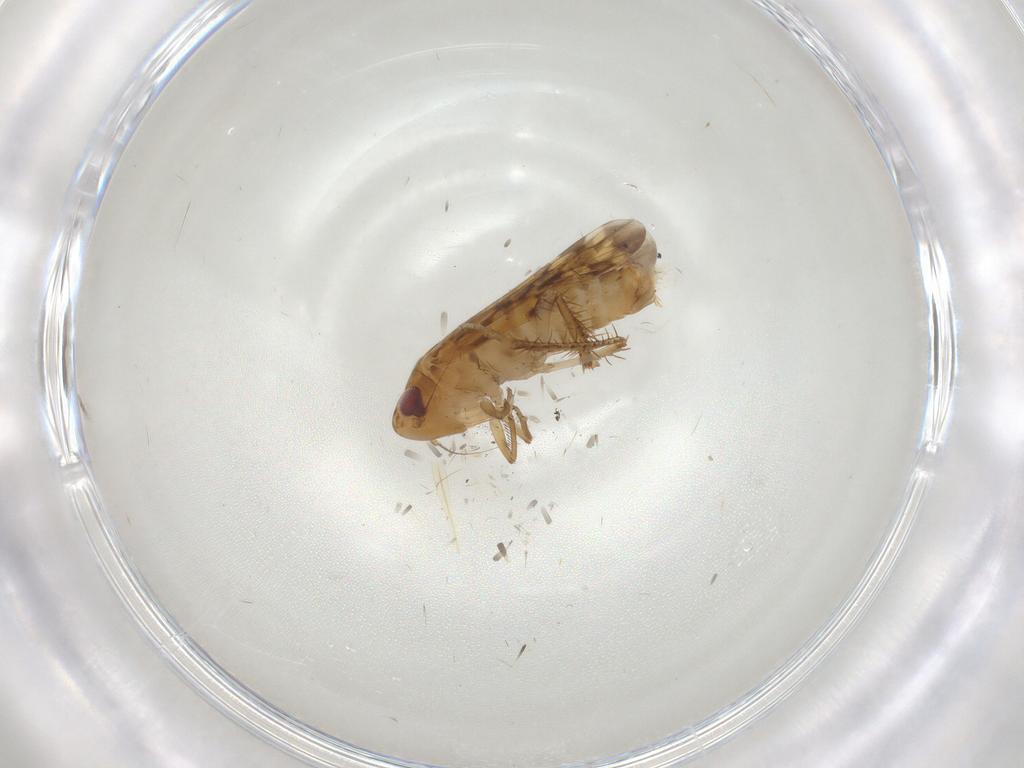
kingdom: Animalia
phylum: Arthropoda
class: Insecta
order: Hemiptera
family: Cicadellidae
